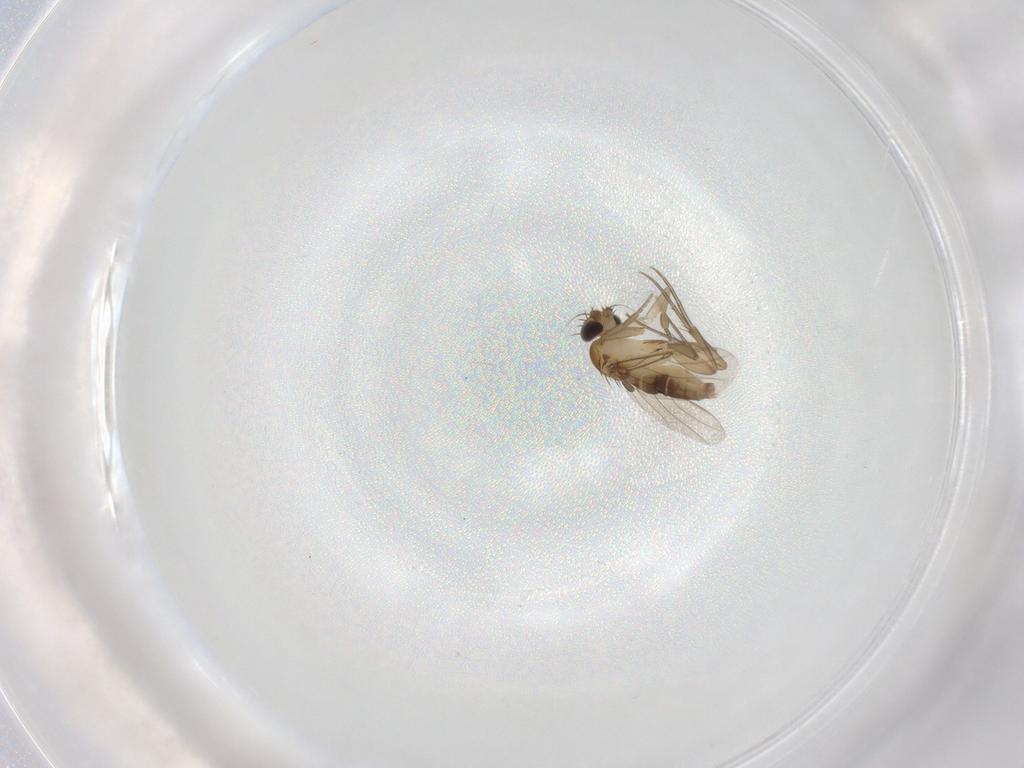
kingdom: Animalia
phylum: Arthropoda
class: Insecta
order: Diptera
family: Phoridae
